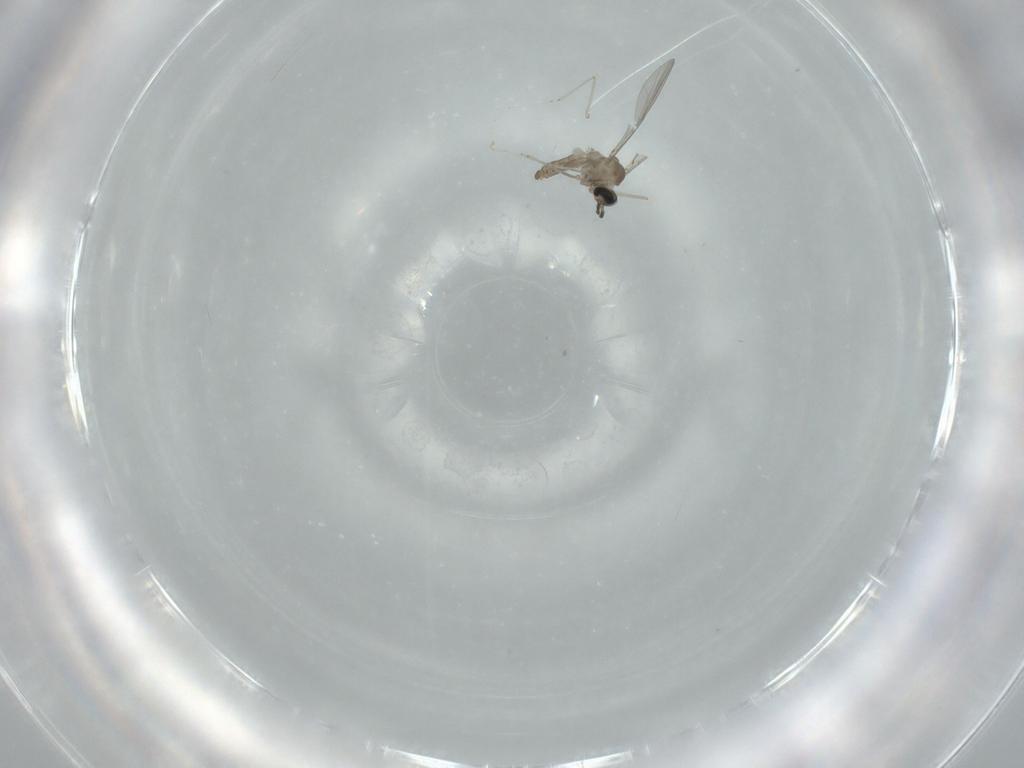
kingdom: Animalia
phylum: Arthropoda
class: Insecta
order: Diptera
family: Cecidomyiidae
